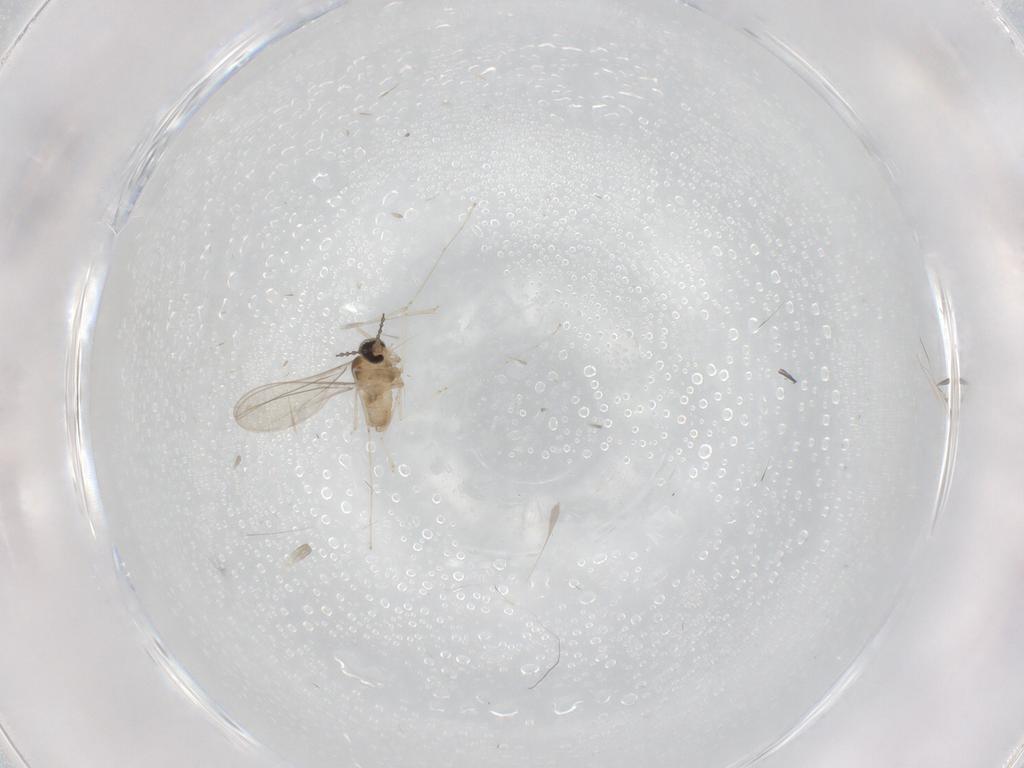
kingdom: Animalia
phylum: Arthropoda
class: Insecta
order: Diptera
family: Cecidomyiidae
